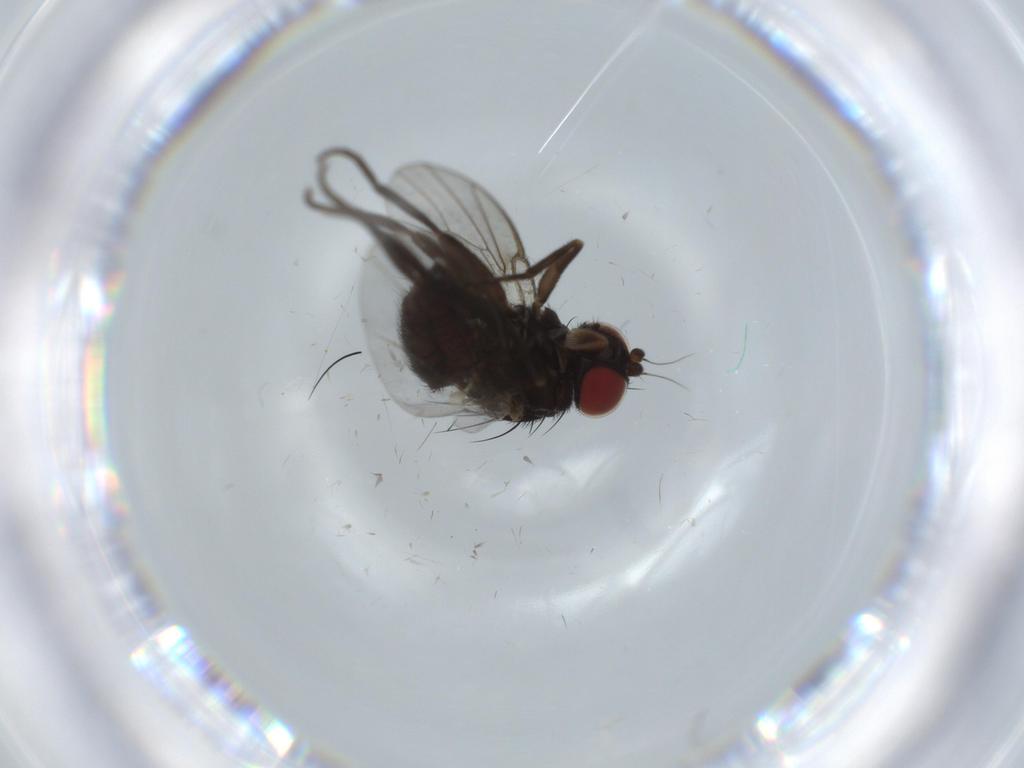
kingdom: Animalia
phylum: Arthropoda
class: Insecta
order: Diptera
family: Agromyzidae
